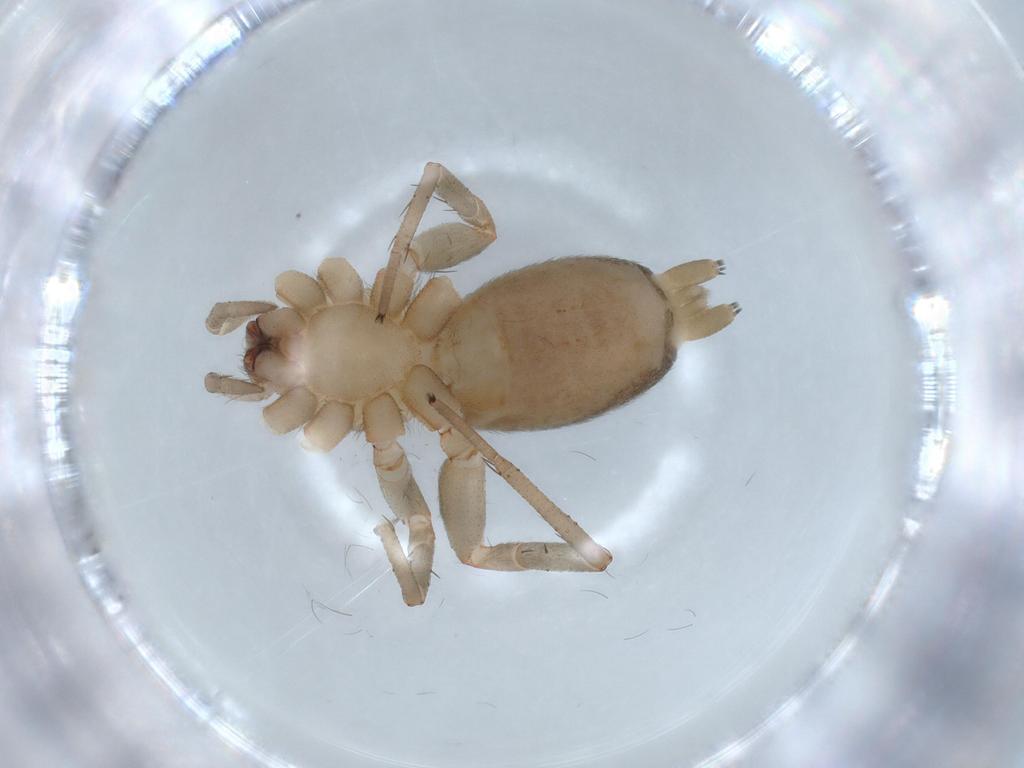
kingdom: Animalia
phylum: Arthropoda
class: Arachnida
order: Araneae
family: Gnaphosidae
